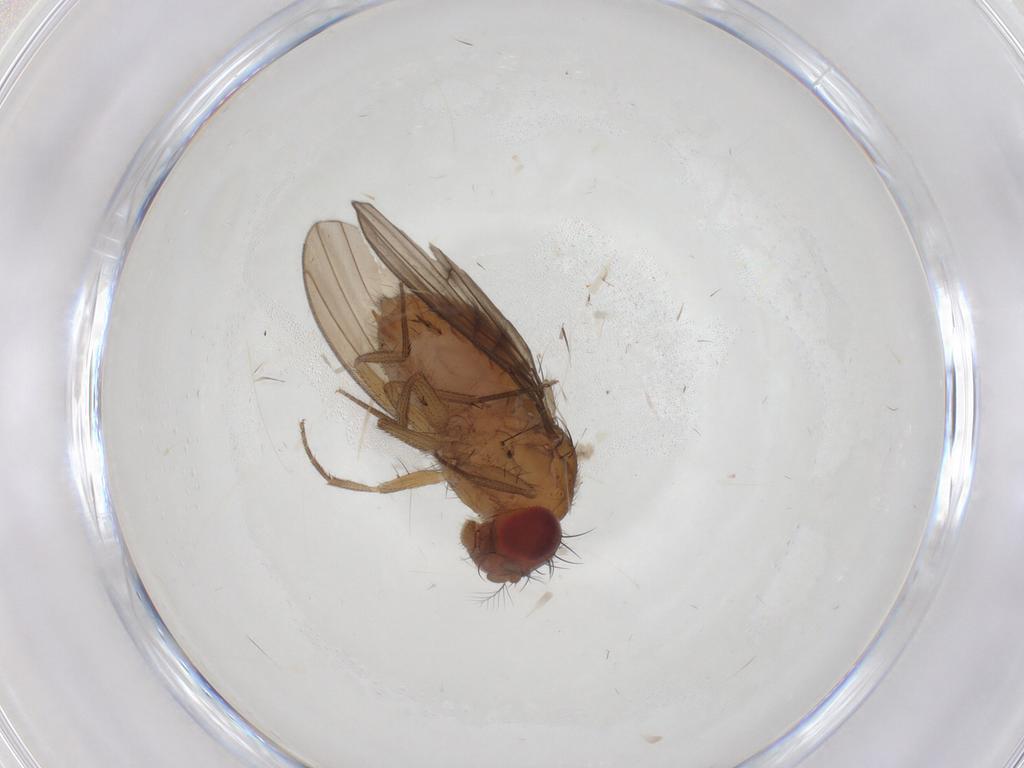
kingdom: Animalia
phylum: Arthropoda
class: Insecta
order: Diptera
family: Drosophilidae
